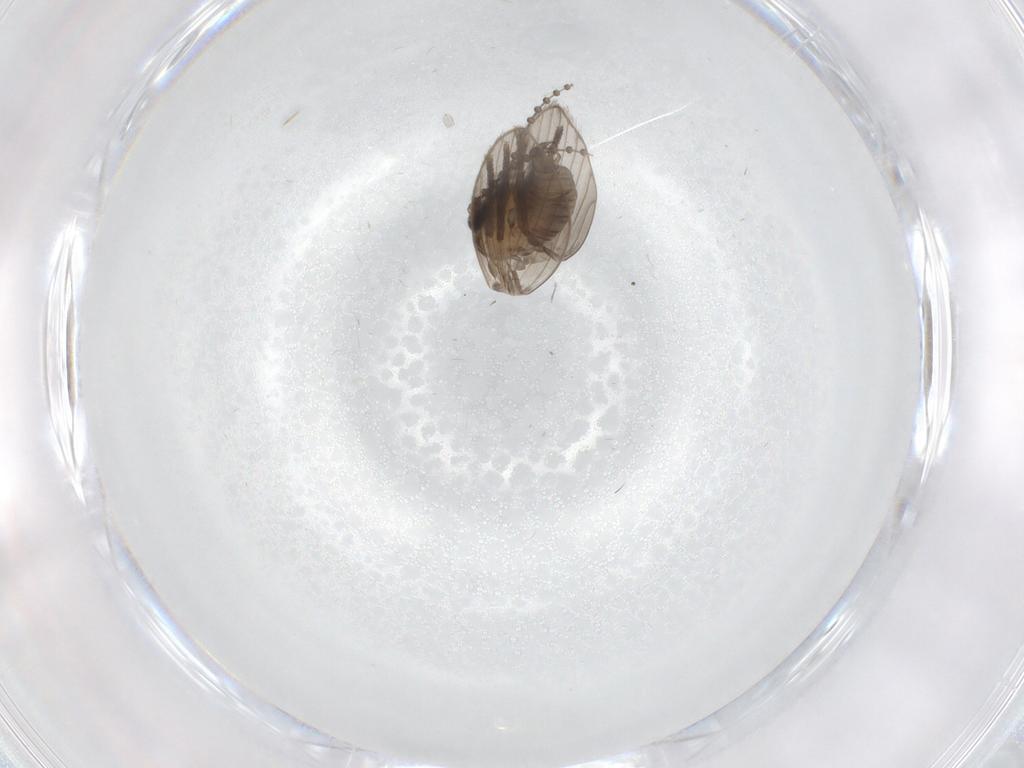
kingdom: Animalia
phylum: Arthropoda
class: Insecta
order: Diptera
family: Psychodidae
